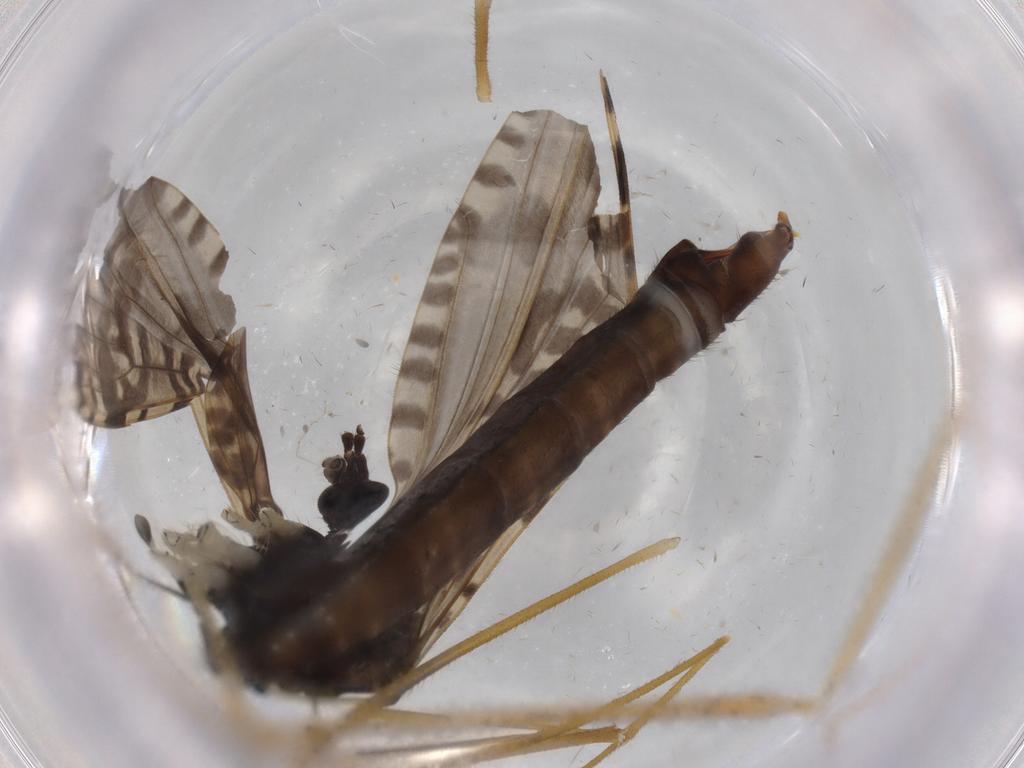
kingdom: Animalia
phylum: Arthropoda
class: Insecta
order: Diptera
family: Limoniidae
